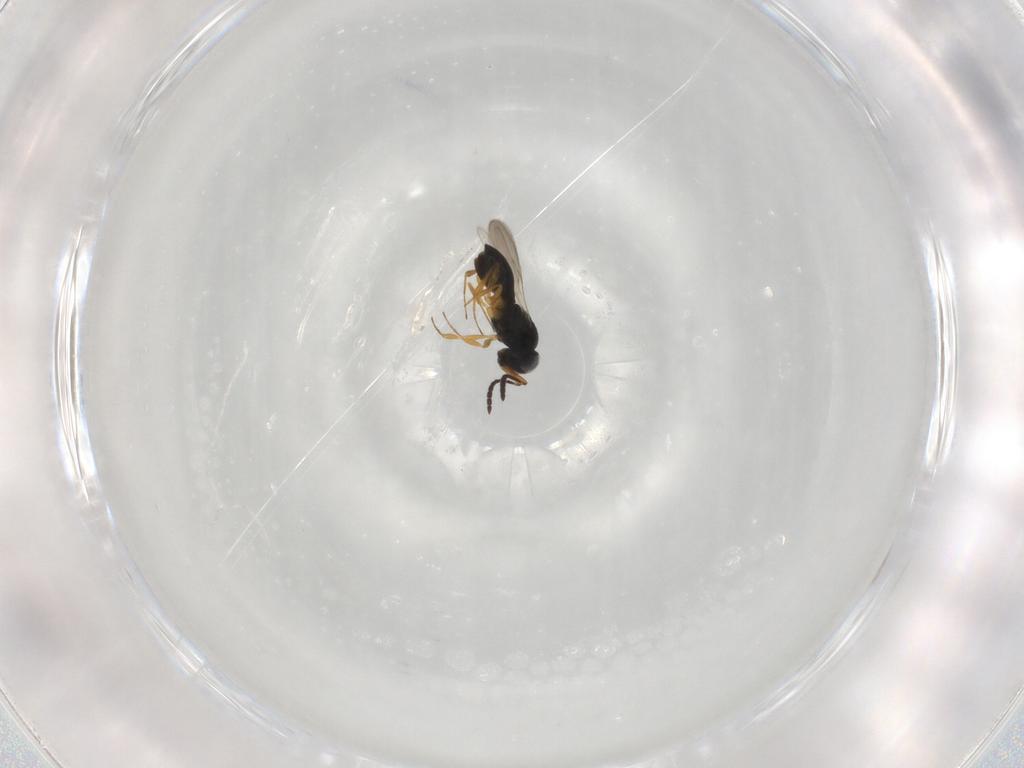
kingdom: Animalia
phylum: Arthropoda
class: Insecta
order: Hymenoptera
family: Scelionidae
